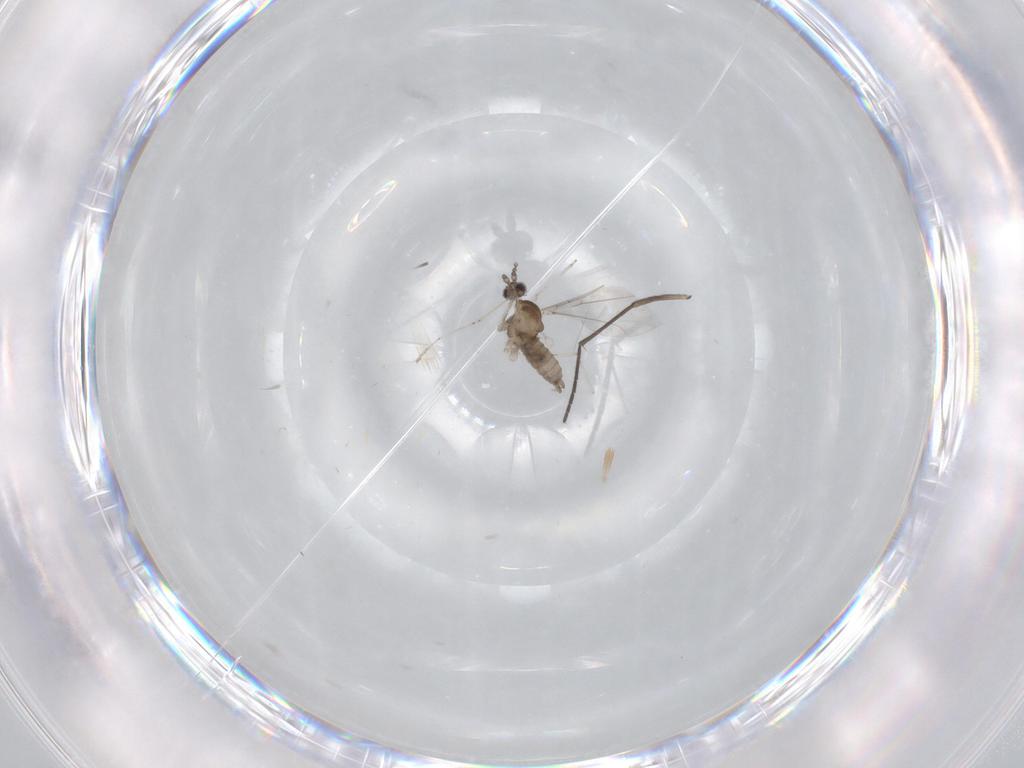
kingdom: Animalia
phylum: Arthropoda
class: Insecta
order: Diptera
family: Cecidomyiidae
